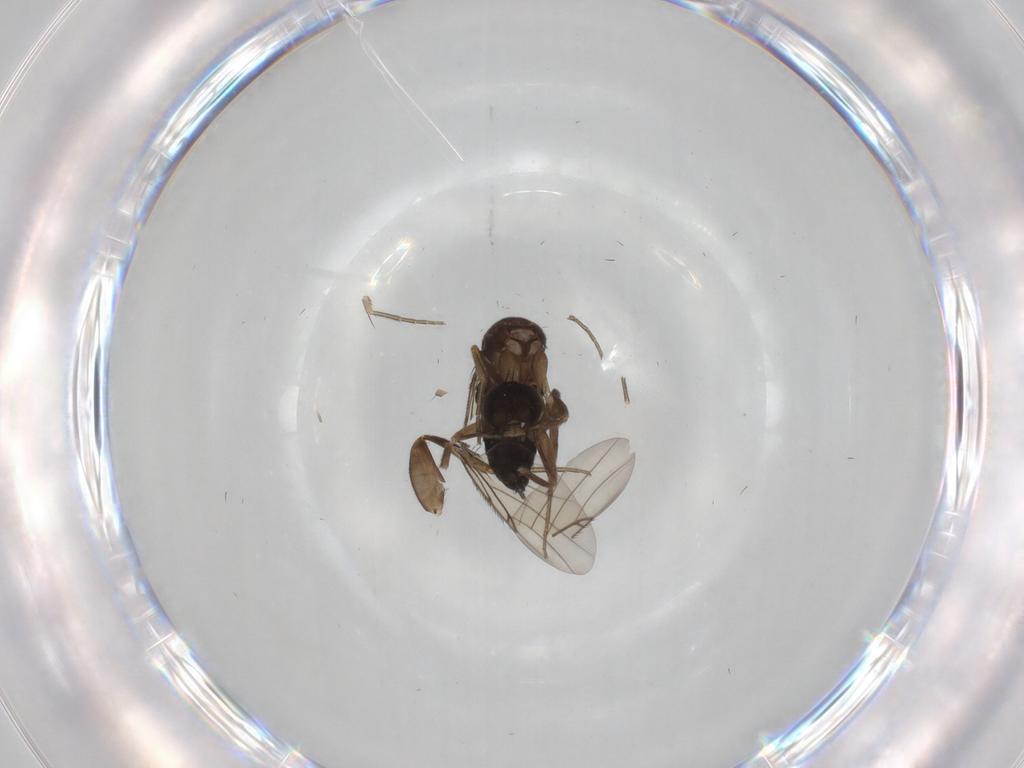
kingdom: Animalia
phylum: Arthropoda
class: Insecta
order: Diptera
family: Phoridae
